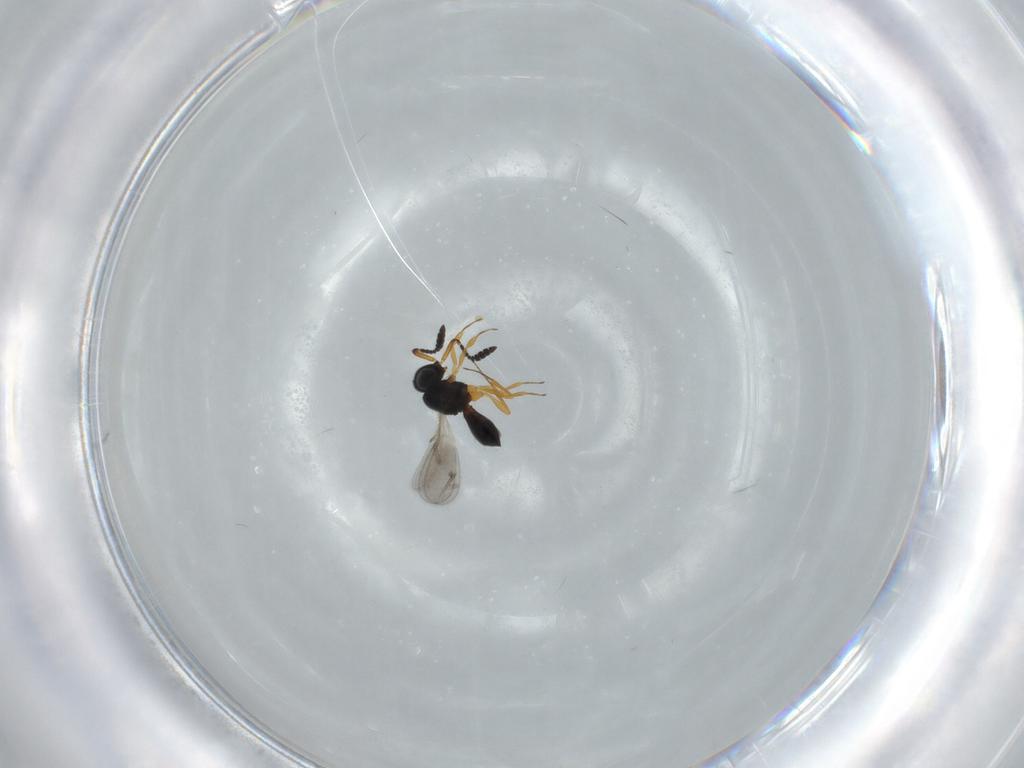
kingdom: Animalia
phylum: Arthropoda
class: Insecta
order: Hymenoptera
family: Scelionidae
